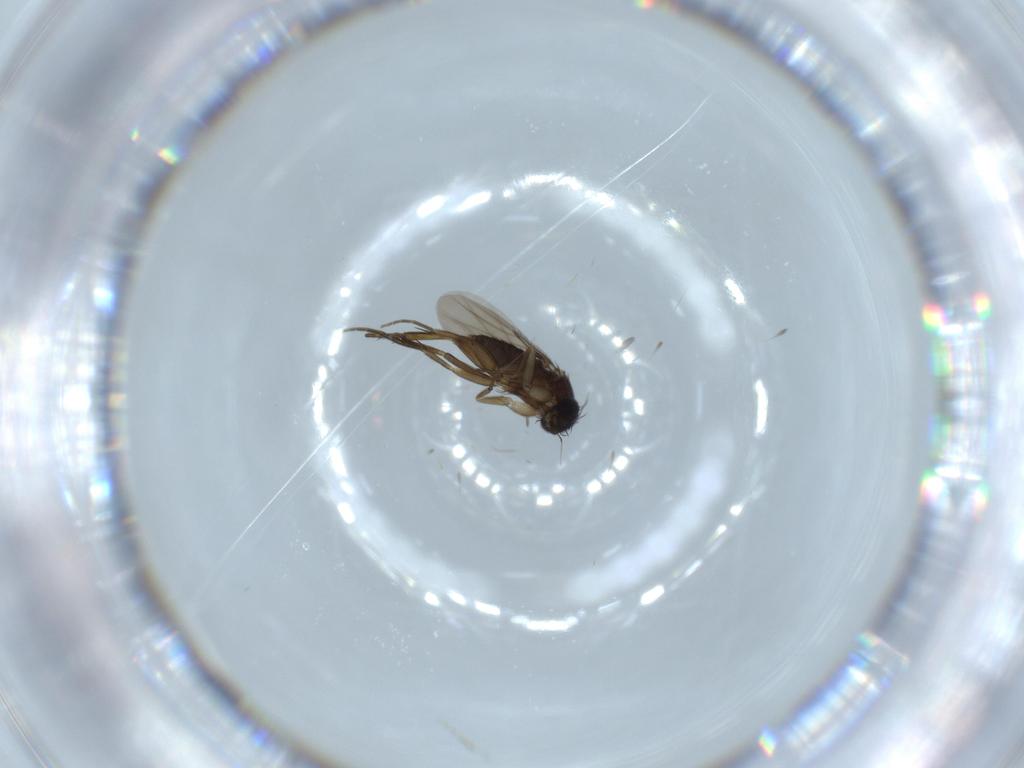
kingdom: Animalia
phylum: Arthropoda
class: Insecta
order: Diptera
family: Phoridae
